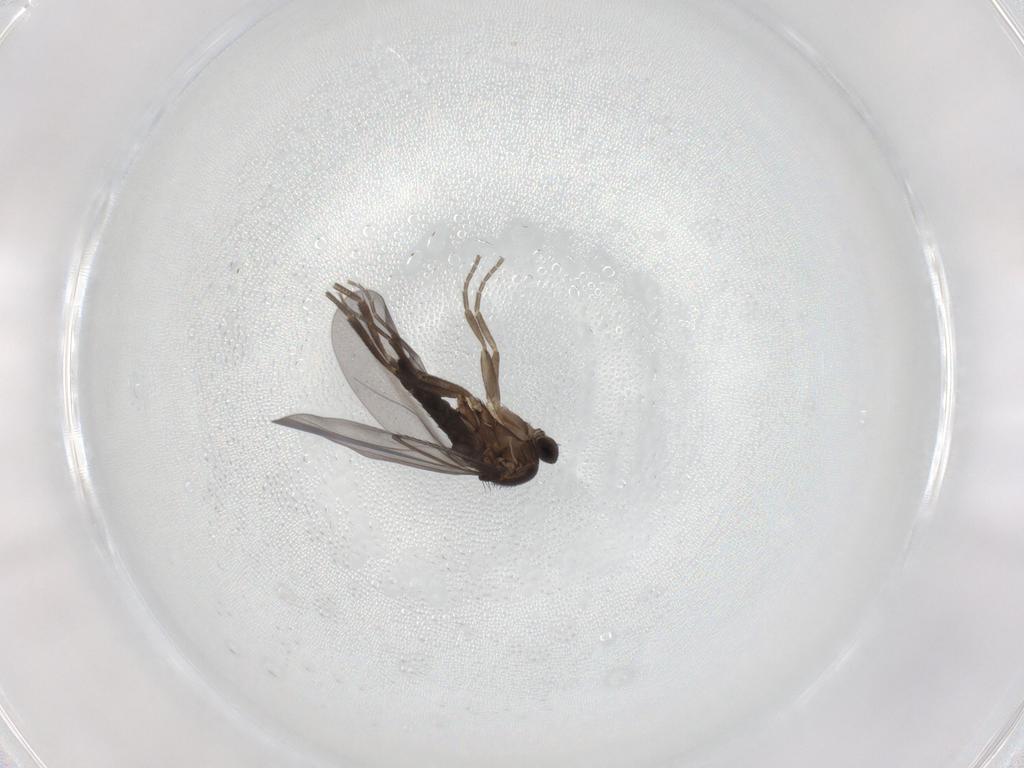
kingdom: Animalia
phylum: Arthropoda
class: Insecta
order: Diptera
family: Phoridae
